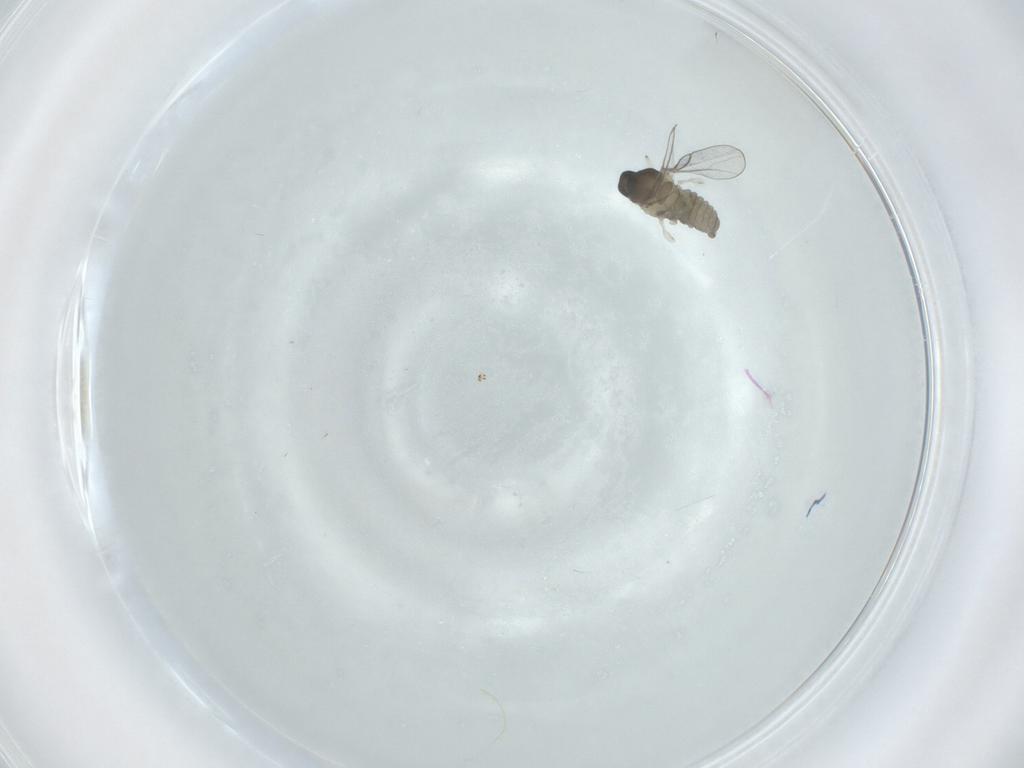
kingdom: Animalia
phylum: Arthropoda
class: Insecta
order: Diptera
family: Cecidomyiidae
